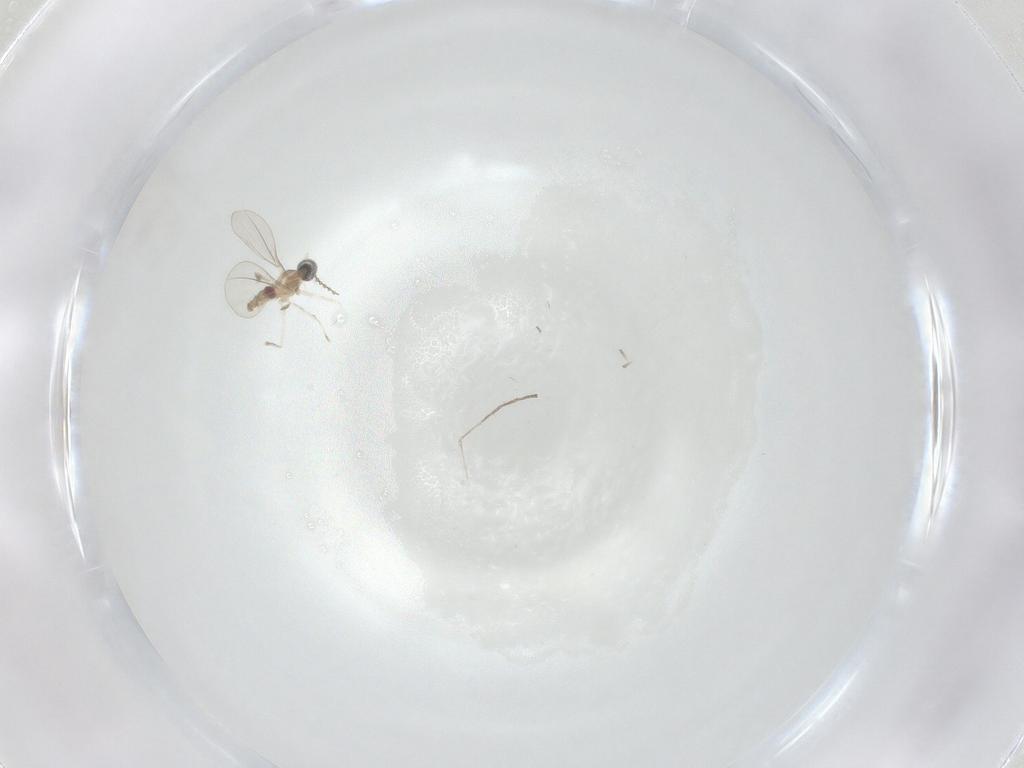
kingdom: Animalia
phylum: Arthropoda
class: Insecta
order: Diptera
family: Cecidomyiidae
